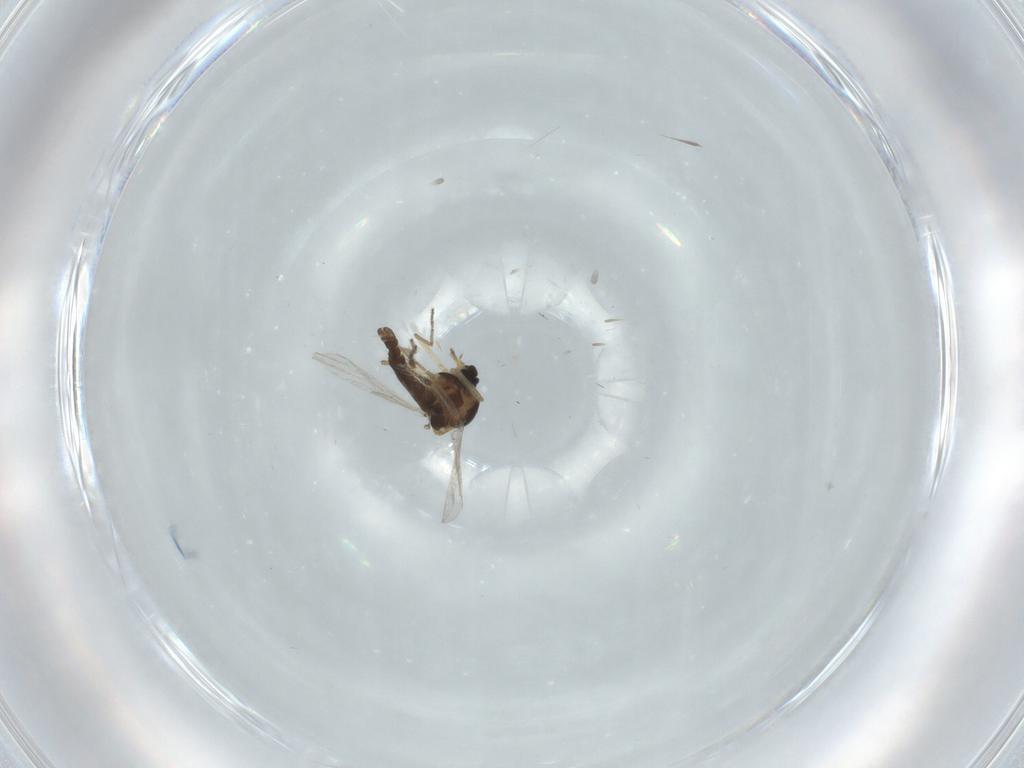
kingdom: Animalia
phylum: Arthropoda
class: Insecta
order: Diptera
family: Ceratopogonidae
